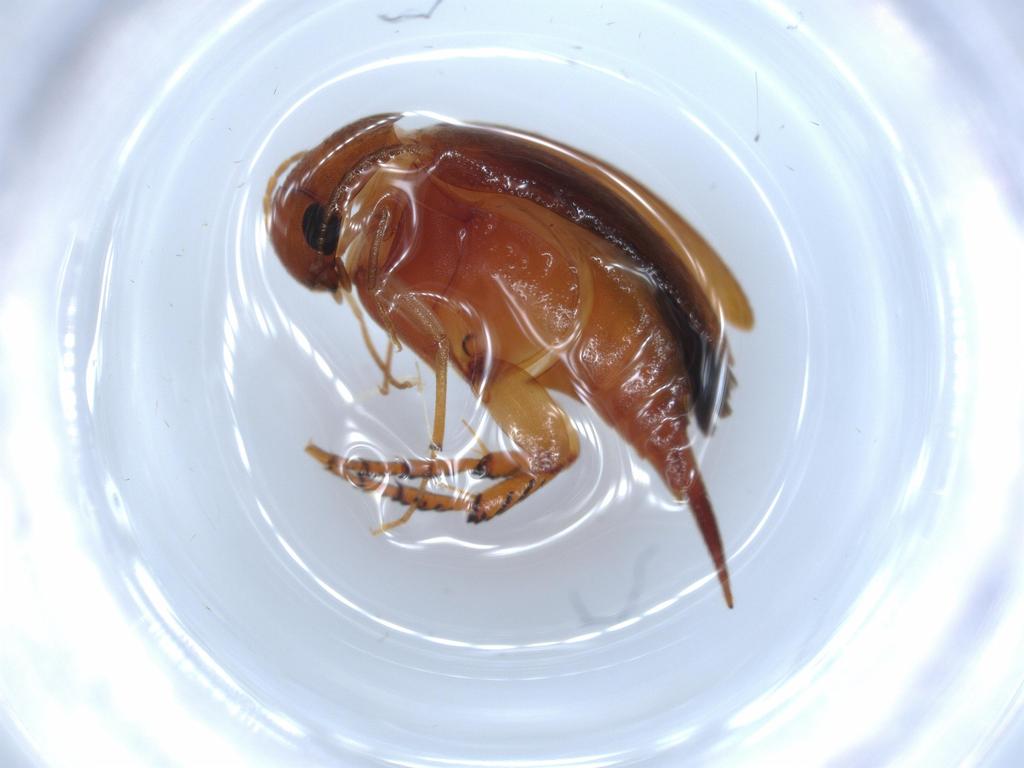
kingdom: Animalia
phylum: Arthropoda
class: Insecta
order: Coleoptera
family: Mordellidae
